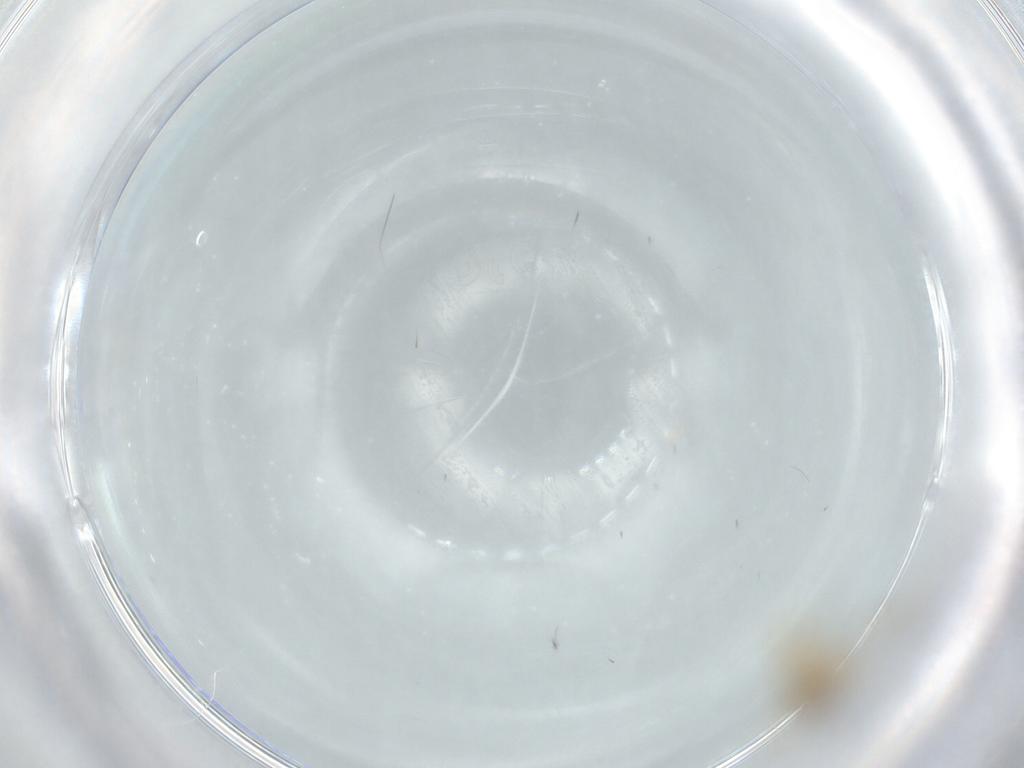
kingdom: Animalia
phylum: Arthropoda
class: Insecta
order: Diptera
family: Chironomidae
